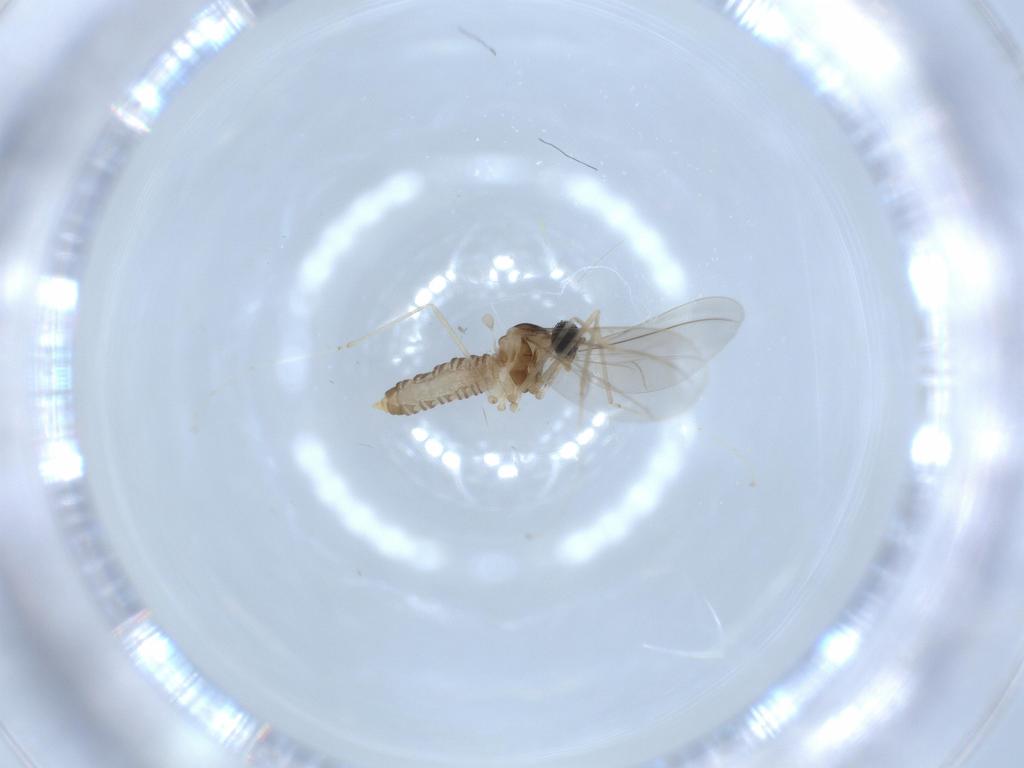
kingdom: Animalia
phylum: Arthropoda
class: Insecta
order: Diptera
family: Cecidomyiidae
